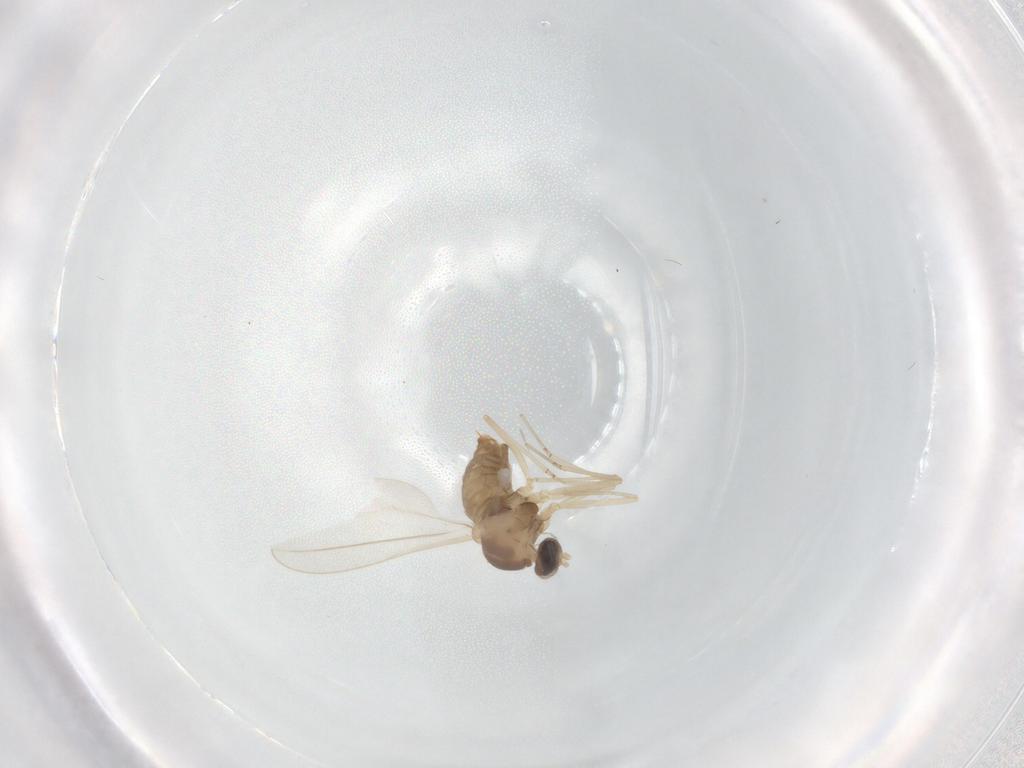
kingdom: Animalia
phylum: Arthropoda
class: Insecta
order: Diptera
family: Cecidomyiidae
